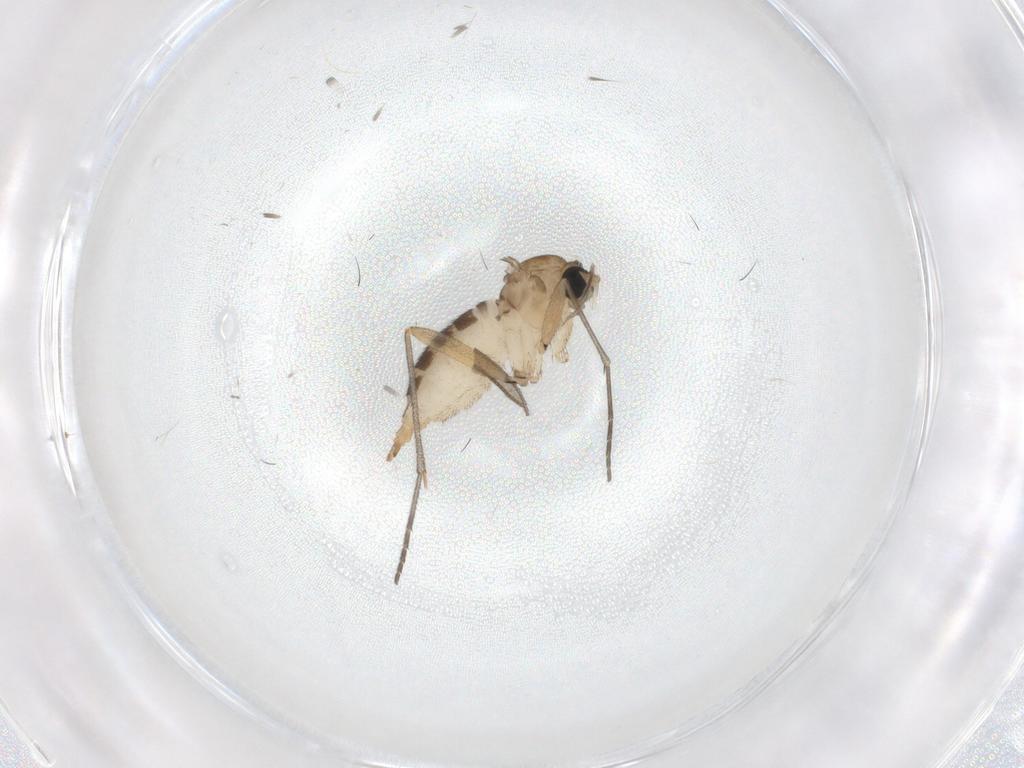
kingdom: Animalia
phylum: Arthropoda
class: Insecta
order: Diptera
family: Sciaridae
